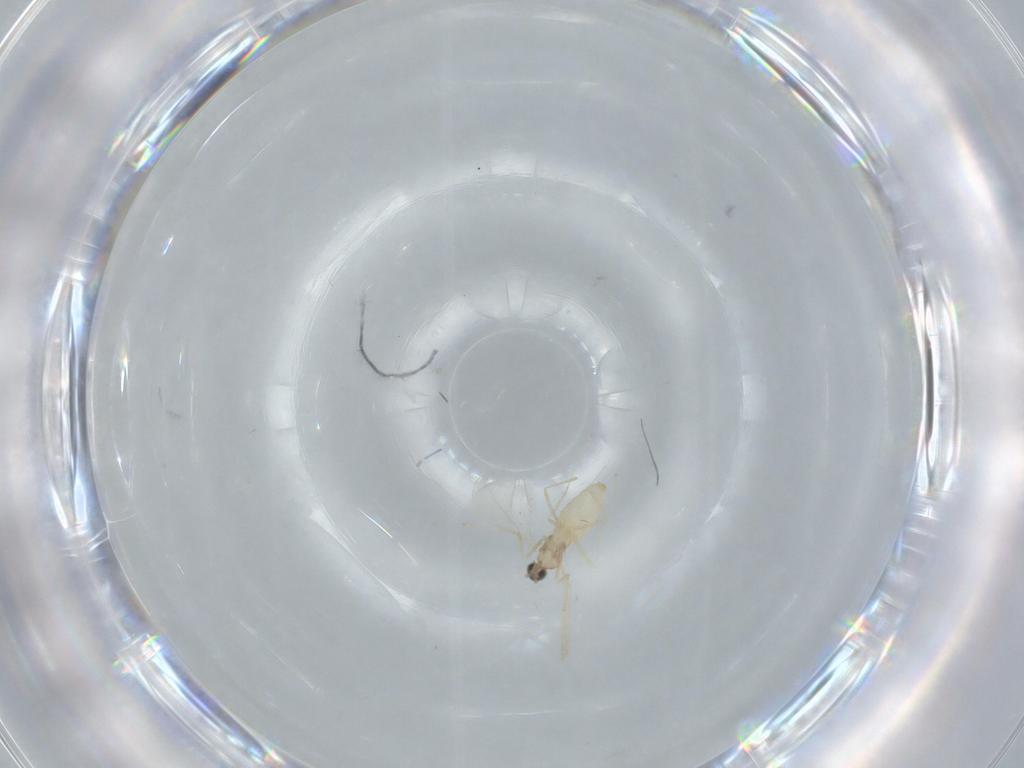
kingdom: Animalia
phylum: Arthropoda
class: Insecta
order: Diptera
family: Cecidomyiidae
